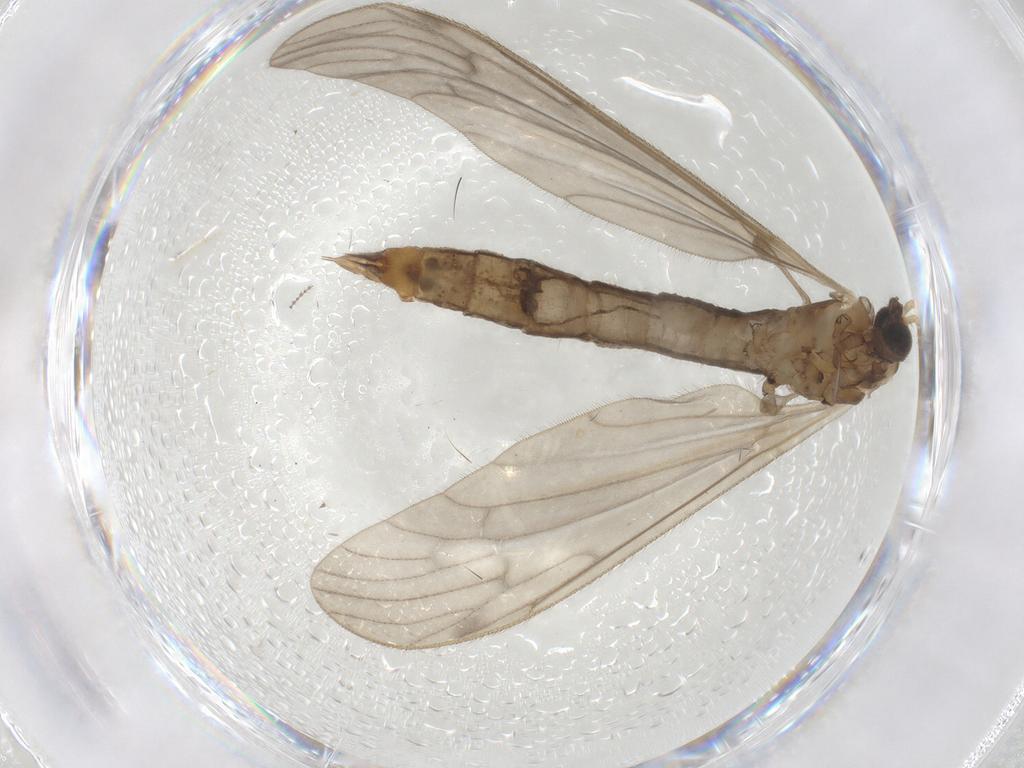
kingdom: Animalia
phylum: Arthropoda
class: Insecta
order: Diptera
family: Limoniidae
